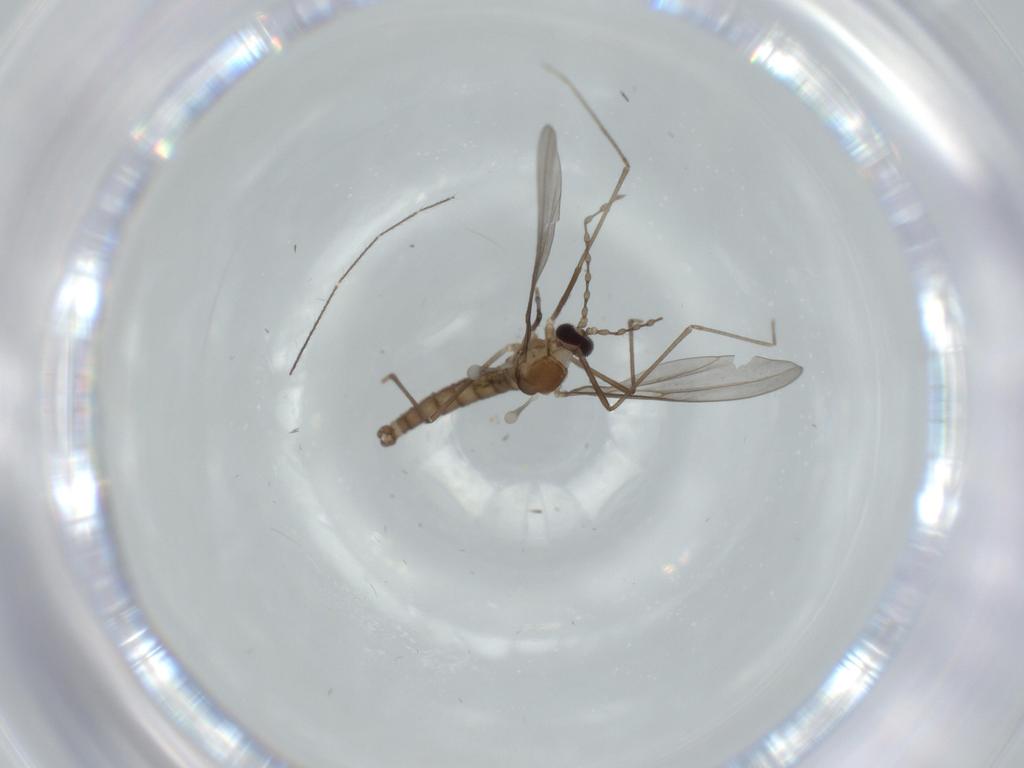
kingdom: Animalia
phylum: Arthropoda
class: Insecta
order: Diptera
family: Cecidomyiidae
